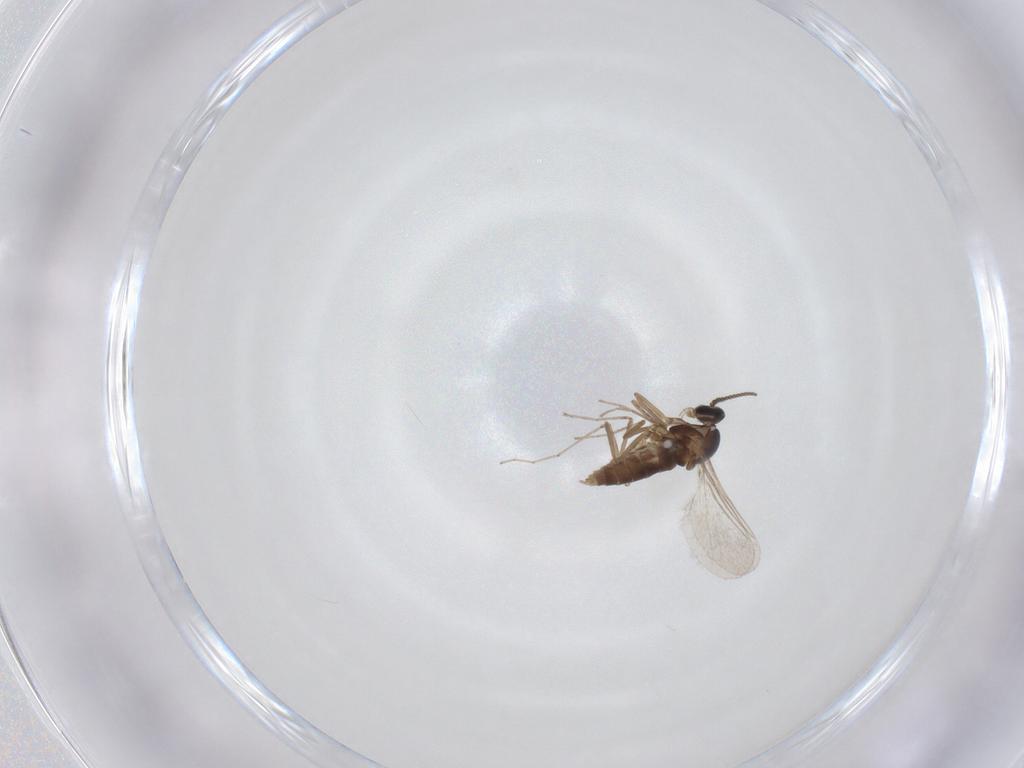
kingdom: Animalia
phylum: Arthropoda
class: Insecta
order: Diptera
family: Cecidomyiidae
